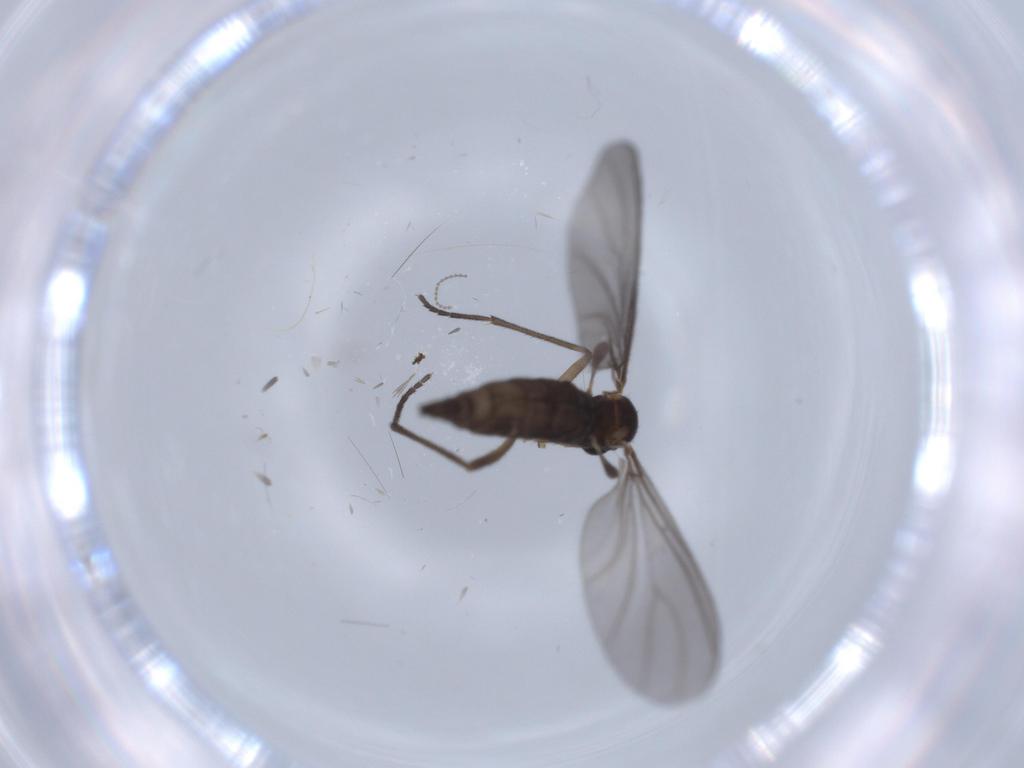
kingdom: Animalia
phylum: Arthropoda
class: Insecta
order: Diptera
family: Sciaridae
